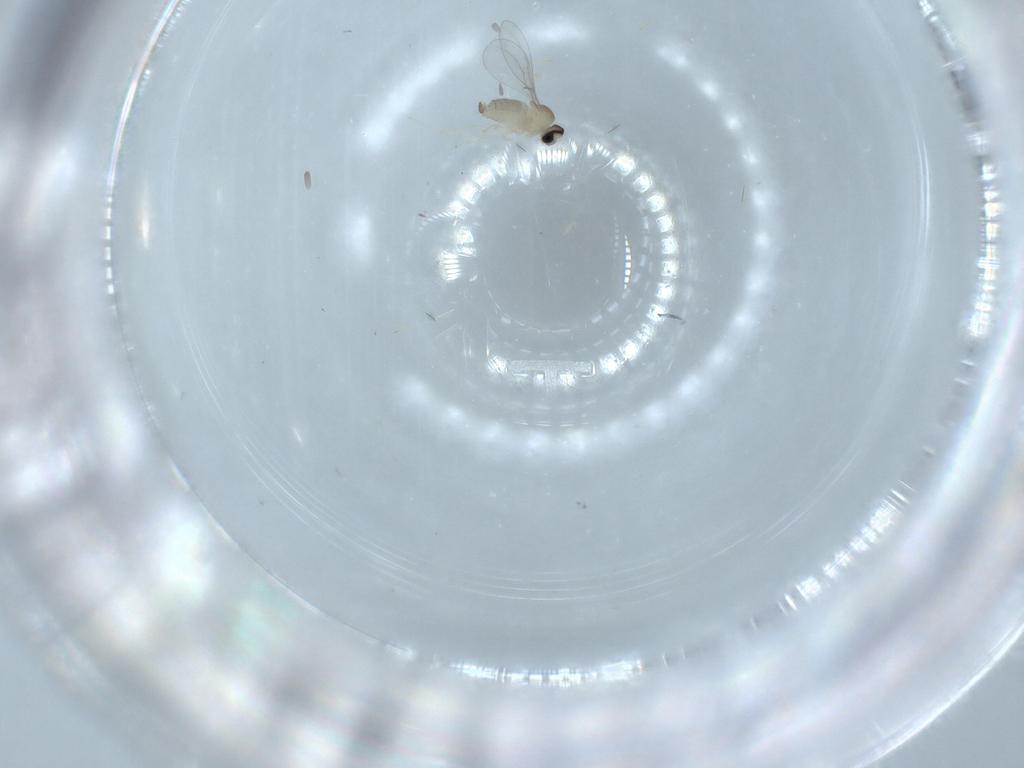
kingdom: Animalia
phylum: Arthropoda
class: Insecta
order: Diptera
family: Cecidomyiidae
